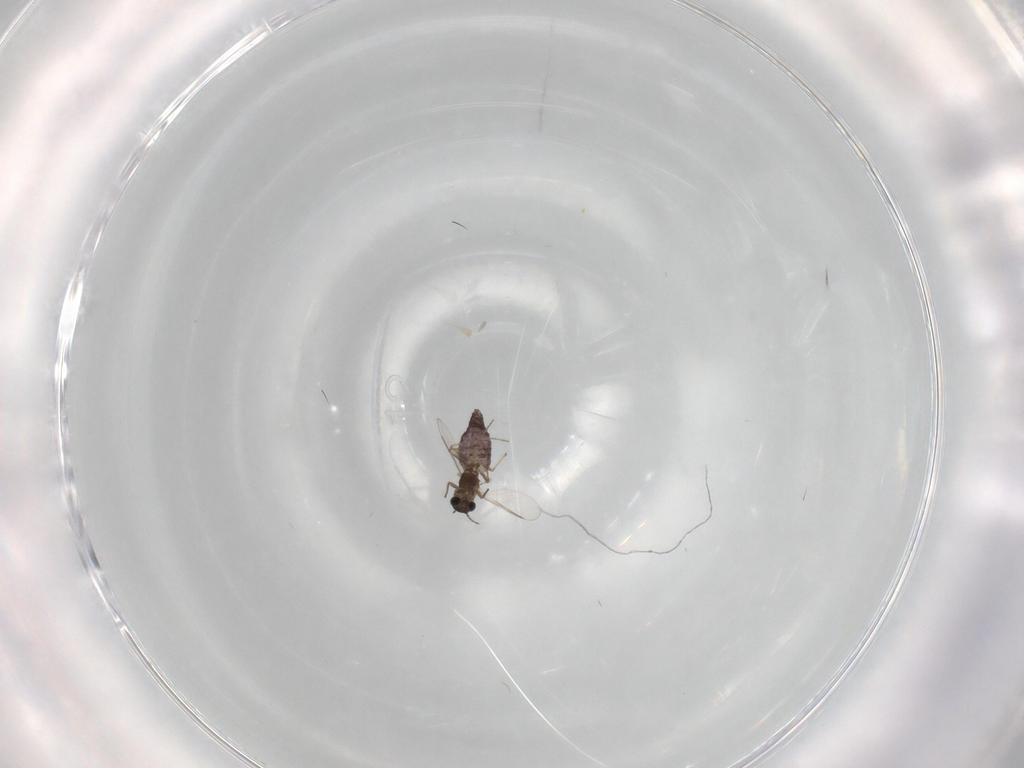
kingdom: Animalia
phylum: Arthropoda
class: Insecta
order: Diptera
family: Chironomidae
